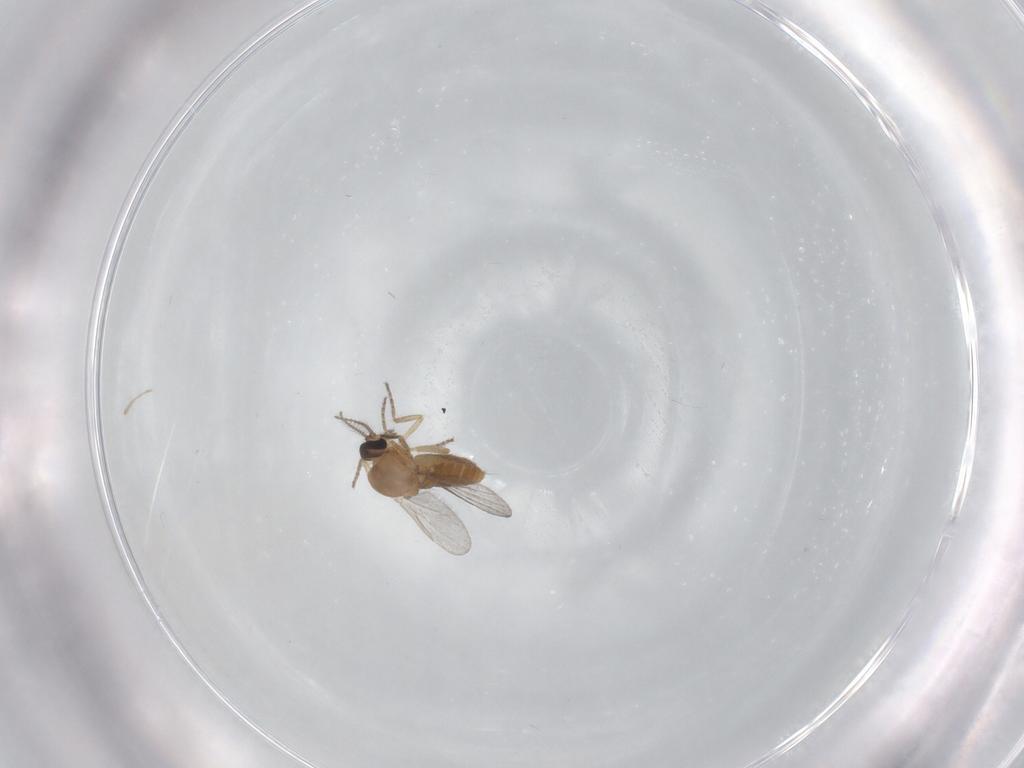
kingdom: Animalia
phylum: Arthropoda
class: Insecta
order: Diptera
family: Ceratopogonidae
